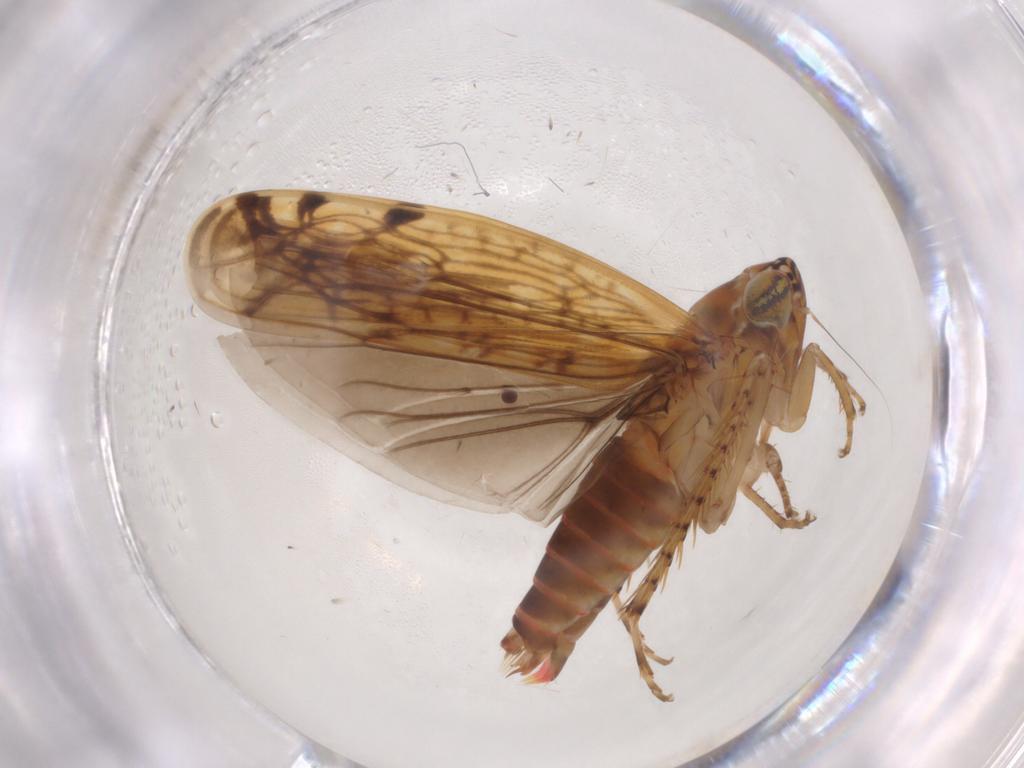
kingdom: Animalia
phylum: Arthropoda
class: Insecta
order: Hemiptera
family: Cicadellidae
